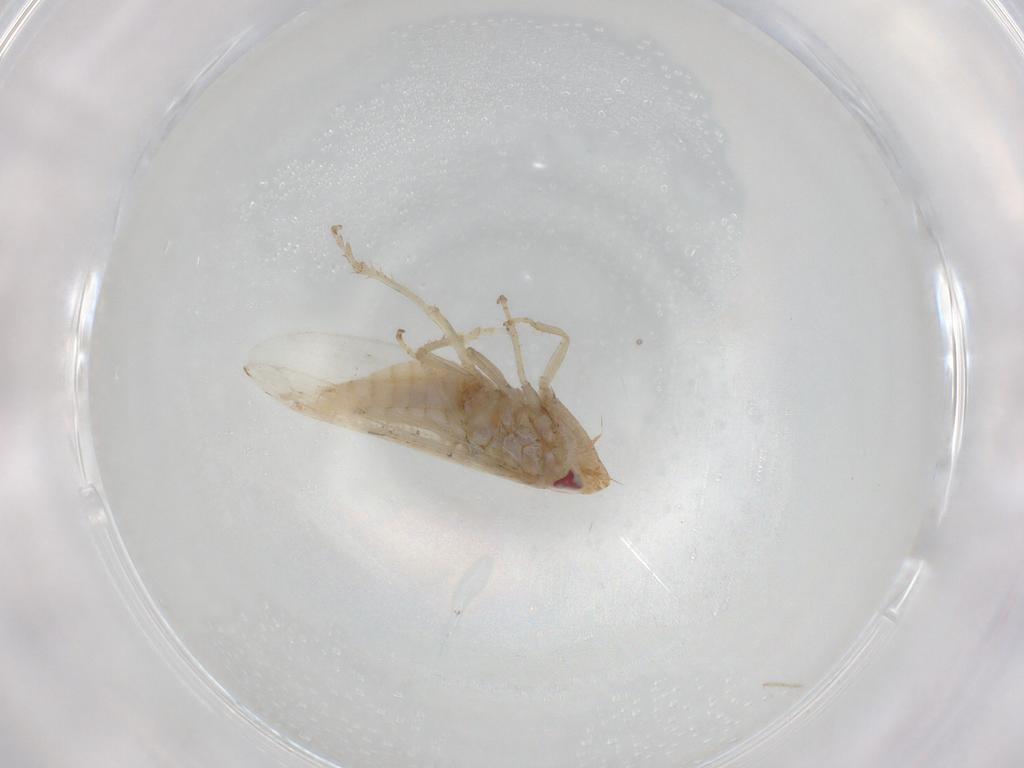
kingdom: Animalia
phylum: Arthropoda
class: Insecta
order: Hemiptera
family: Cicadellidae
